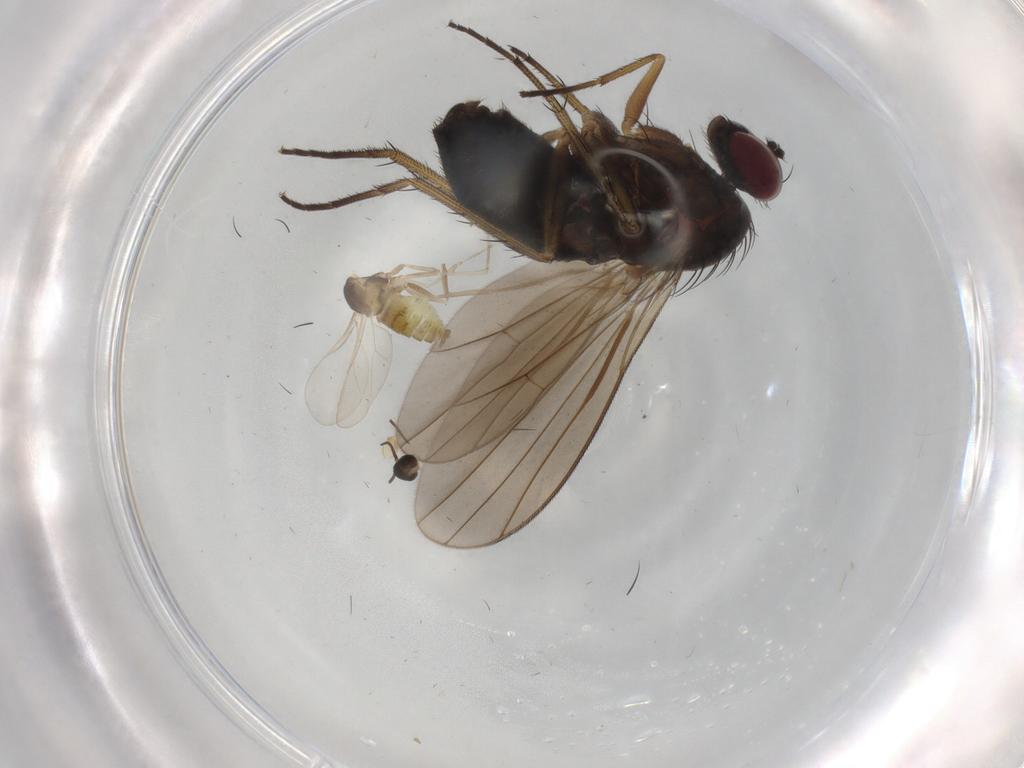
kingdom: Animalia
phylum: Arthropoda
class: Insecta
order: Diptera
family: Dolichopodidae
